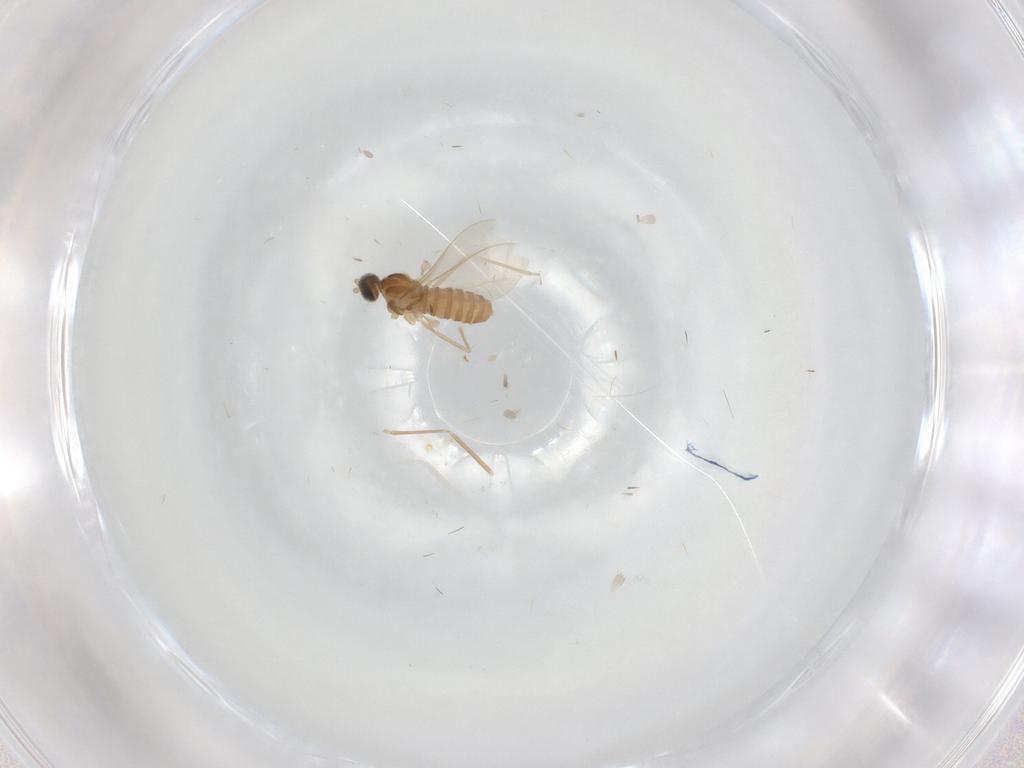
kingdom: Animalia
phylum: Arthropoda
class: Insecta
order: Diptera
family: Cecidomyiidae
